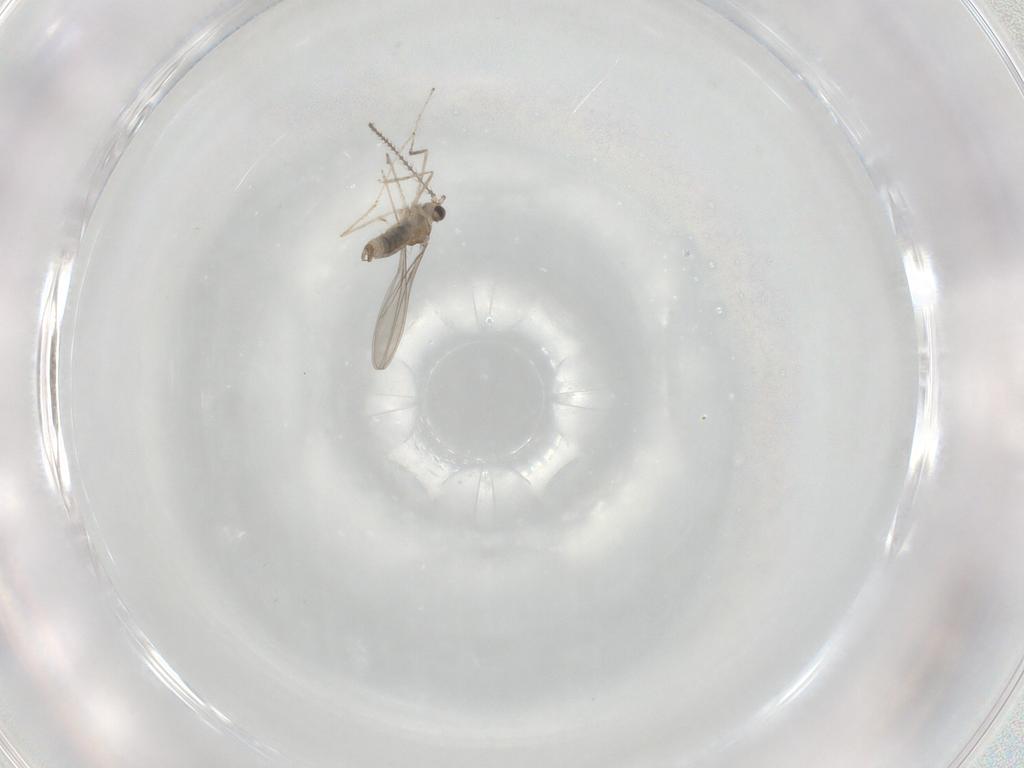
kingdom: Animalia
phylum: Arthropoda
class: Insecta
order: Diptera
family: Cecidomyiidae
